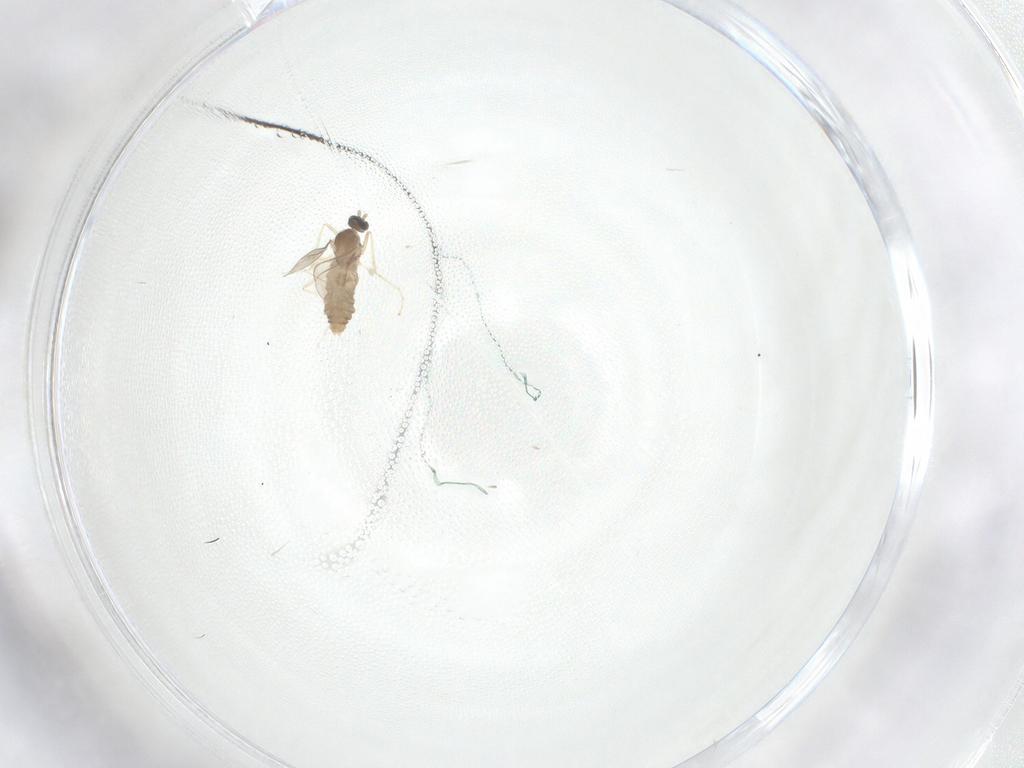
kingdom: Animalia
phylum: Arthropoda
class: Insecta
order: Diptera
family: Cecidomyiidae
